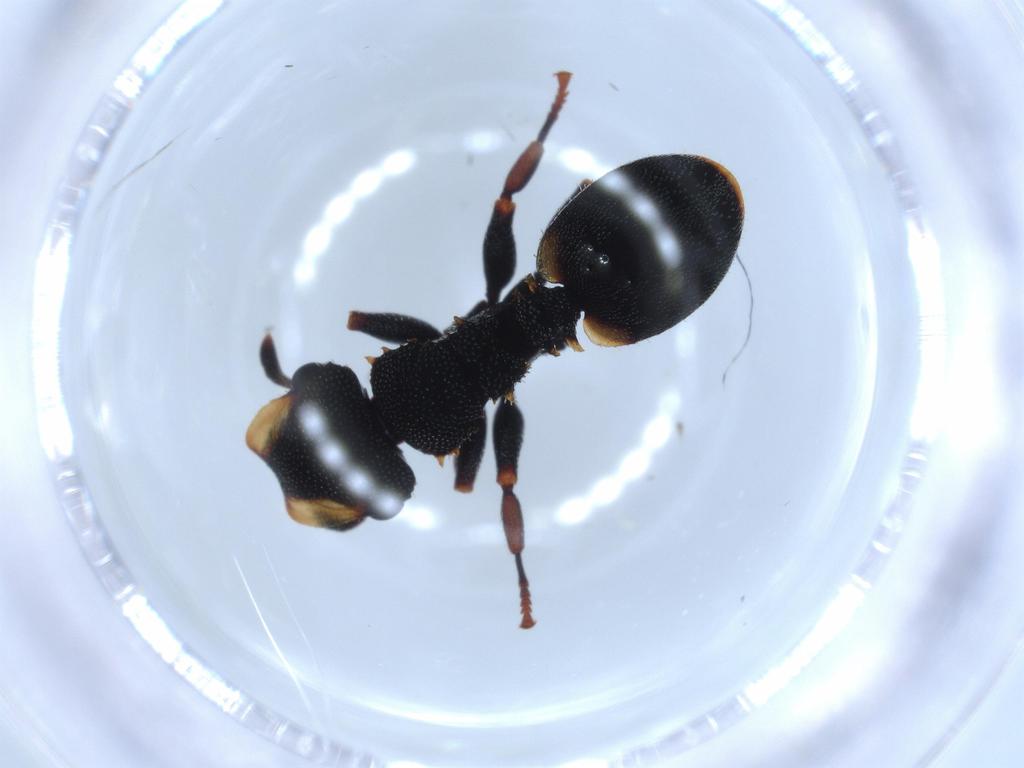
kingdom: Animalia
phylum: Arthropoda
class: Insecta
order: Hymenoptera
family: Formicidae
